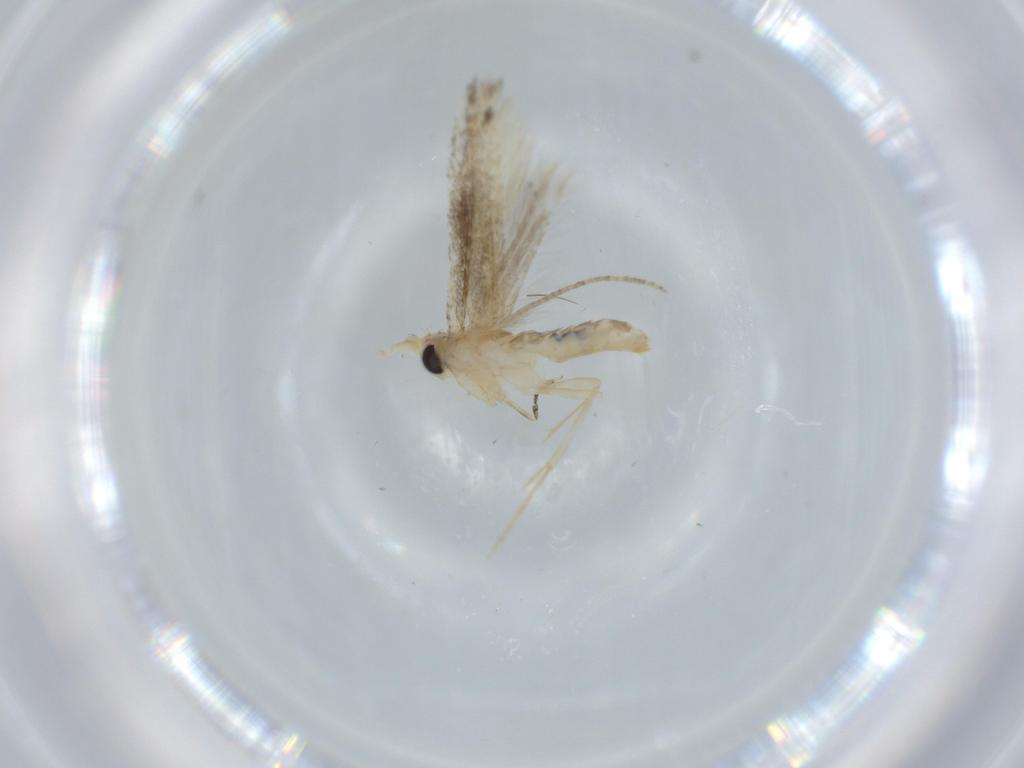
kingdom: Animalia
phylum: Arthropoda
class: Insecta
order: Lepidoptera
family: Bucculatricidae
